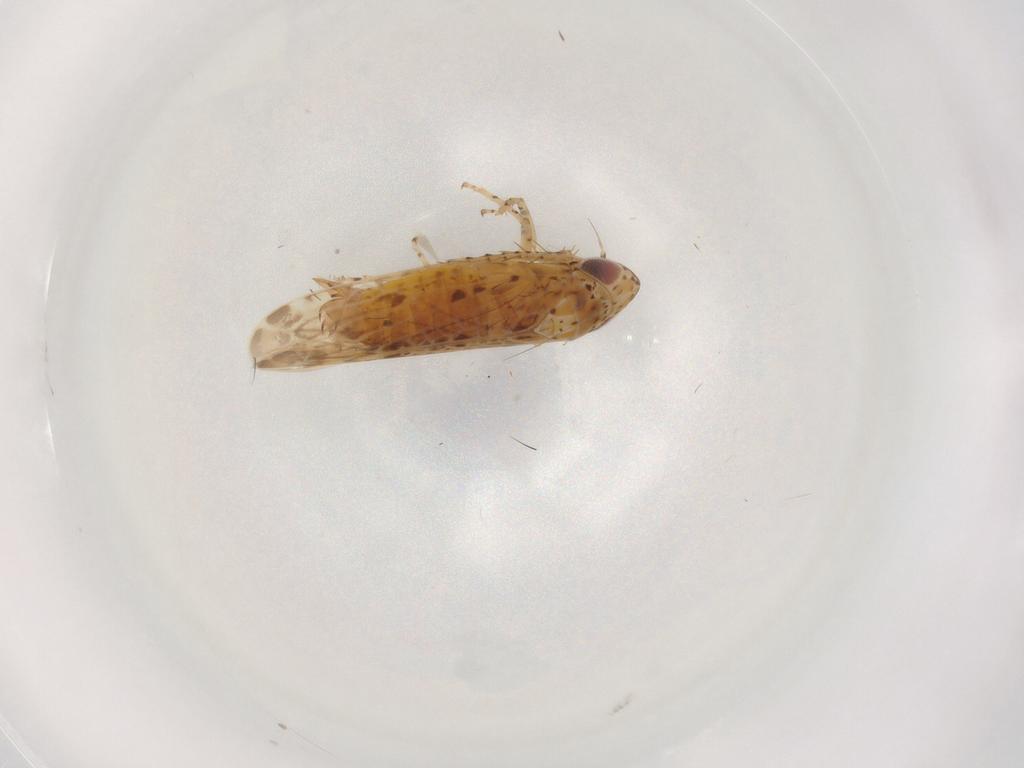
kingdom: Animalia
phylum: Arthropoda
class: Insecta
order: Hemiptera
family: Cicadellidae
